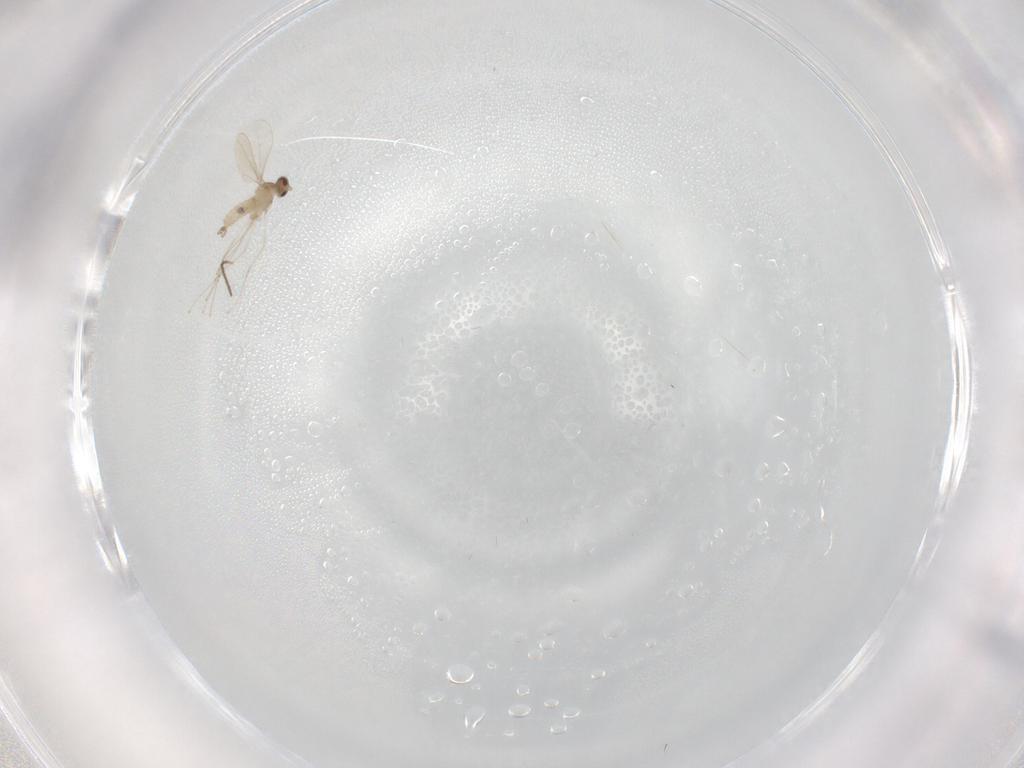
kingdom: Animalia
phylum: Arthropoda
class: Insecta
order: Diptera
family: Cecidomyiidae
